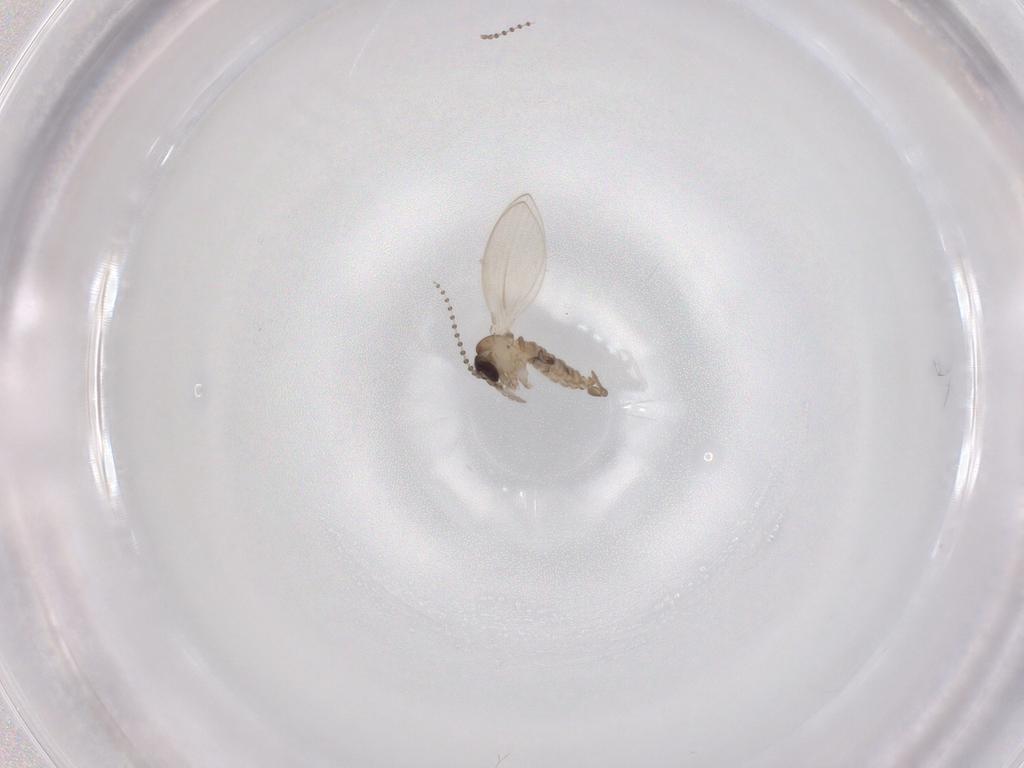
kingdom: Animalia
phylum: Arthropoda
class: Insecta
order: Diptera
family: Psychodidae
